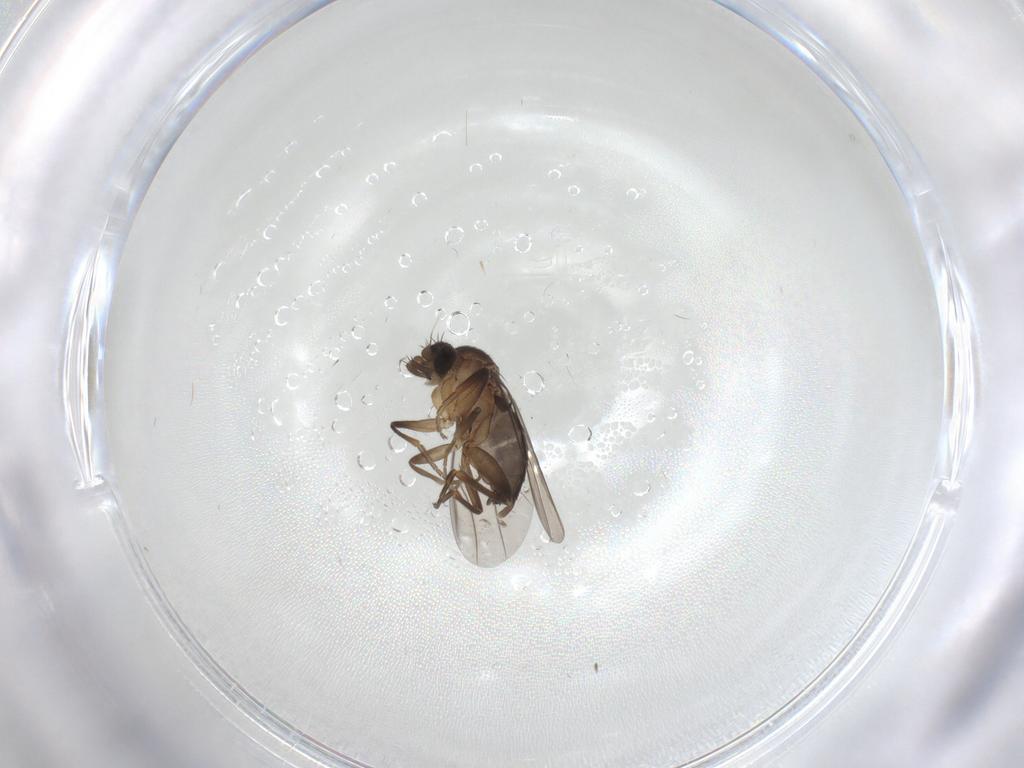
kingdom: Animalia
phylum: Arthropoda
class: Insecta
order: Diptera
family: Phoridae
